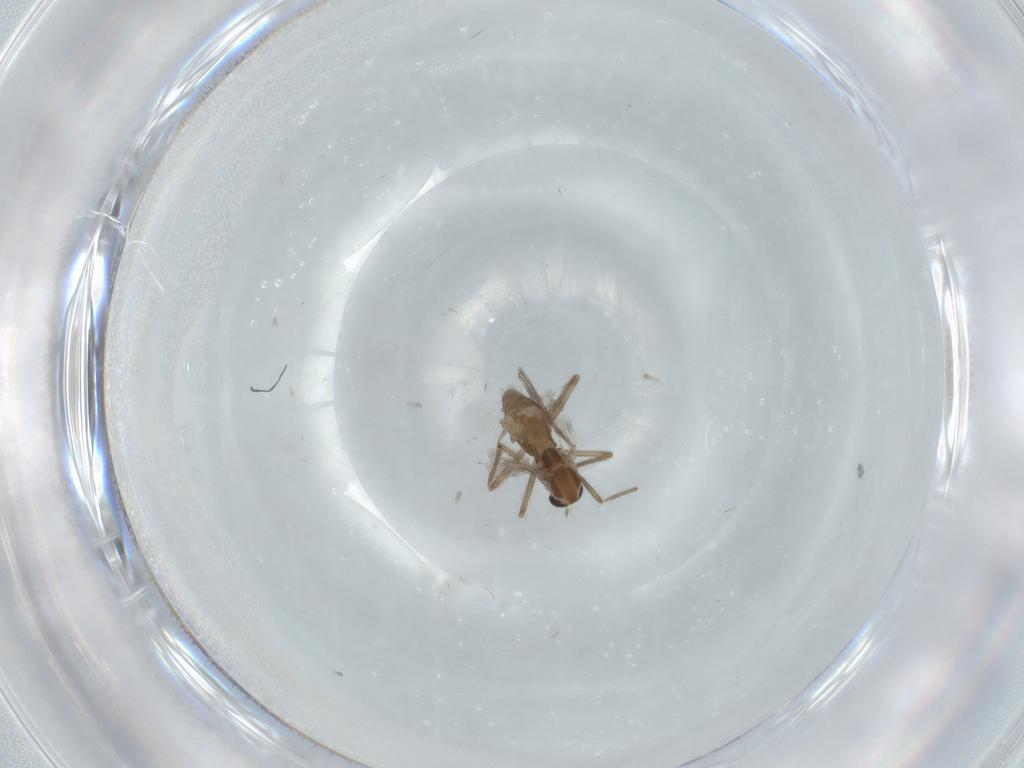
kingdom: Animalia
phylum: Arthropoda
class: Insecta
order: Diptera
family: Chironomidae
